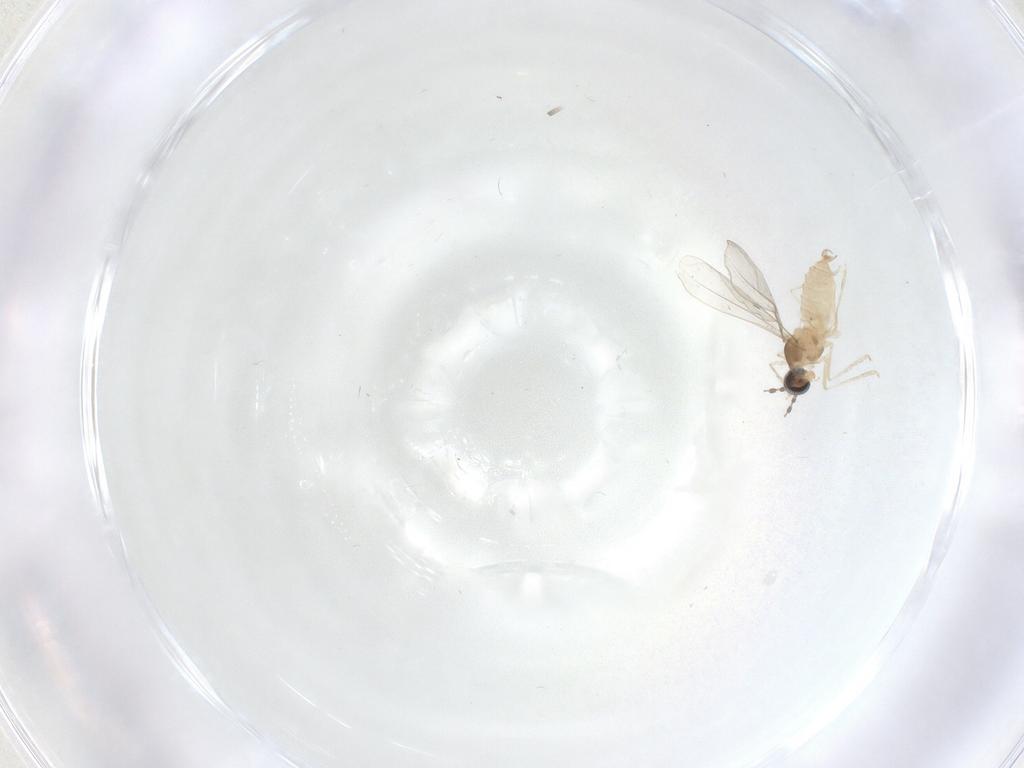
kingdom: Animalia
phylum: Arthropoda
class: Insecta
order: Diptera
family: Cecidomyiidae
